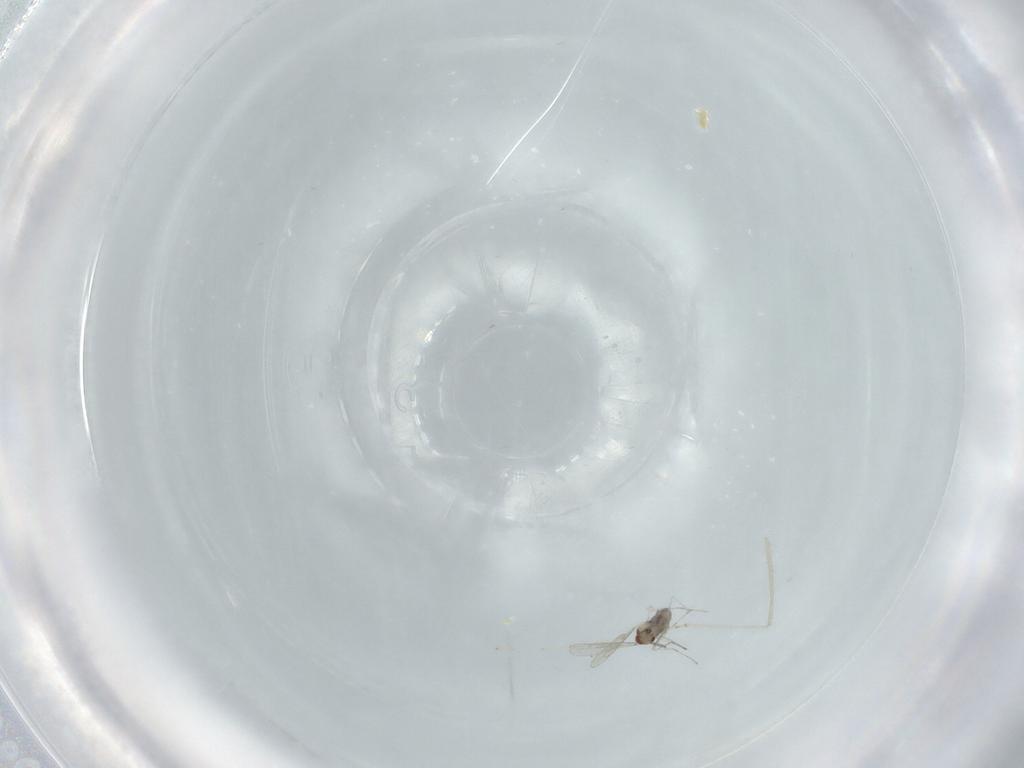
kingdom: Animalia
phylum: Arthropoda
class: Insecta
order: Diptera
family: Cecidomyiidae
